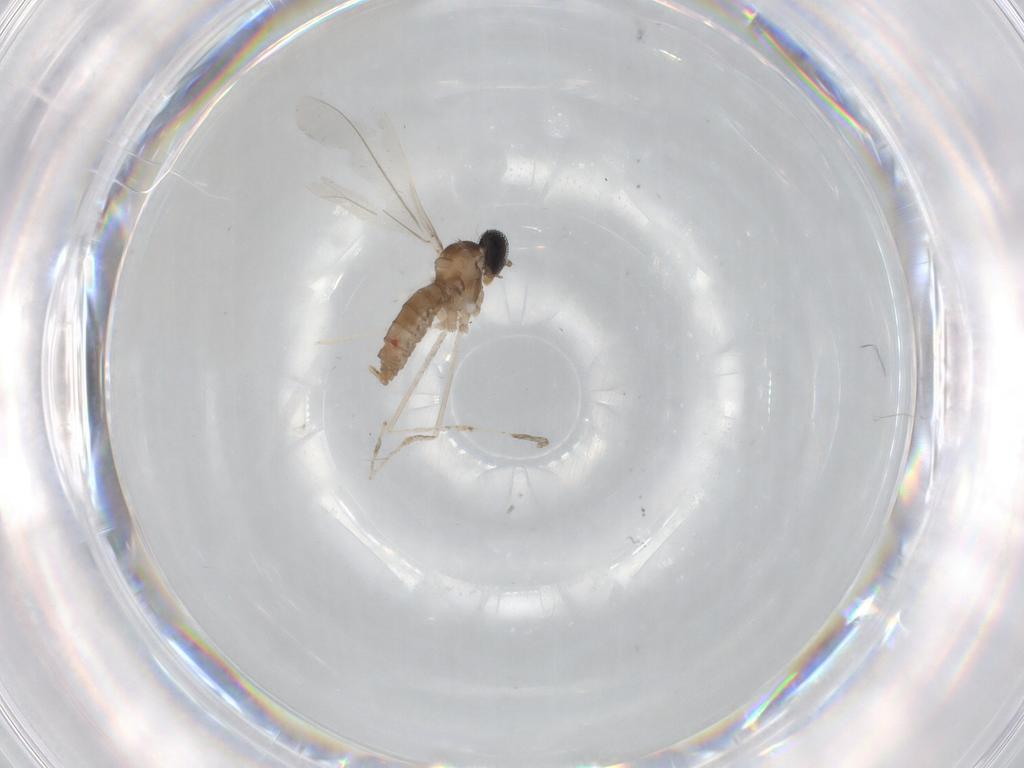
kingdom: Animalia
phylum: Arthropoda
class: Insecta
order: Diptera
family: Cecidomyiidae
